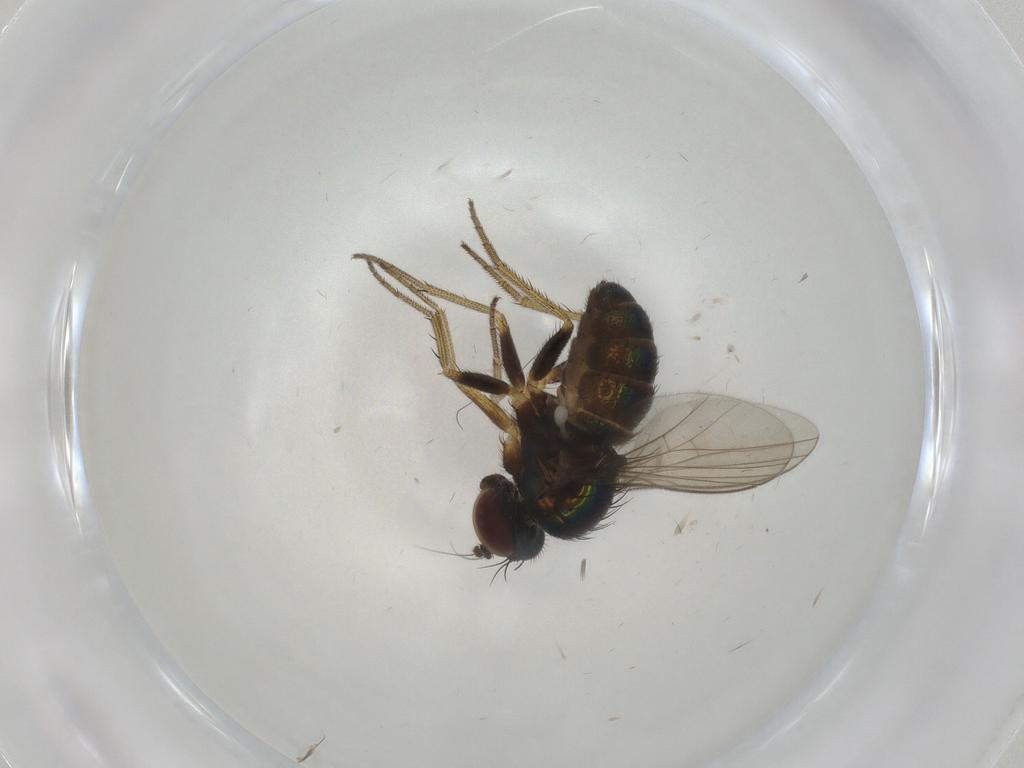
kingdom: Animalia
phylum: Arthropoda
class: Insecta
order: Diptera
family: Dolichopodidae
